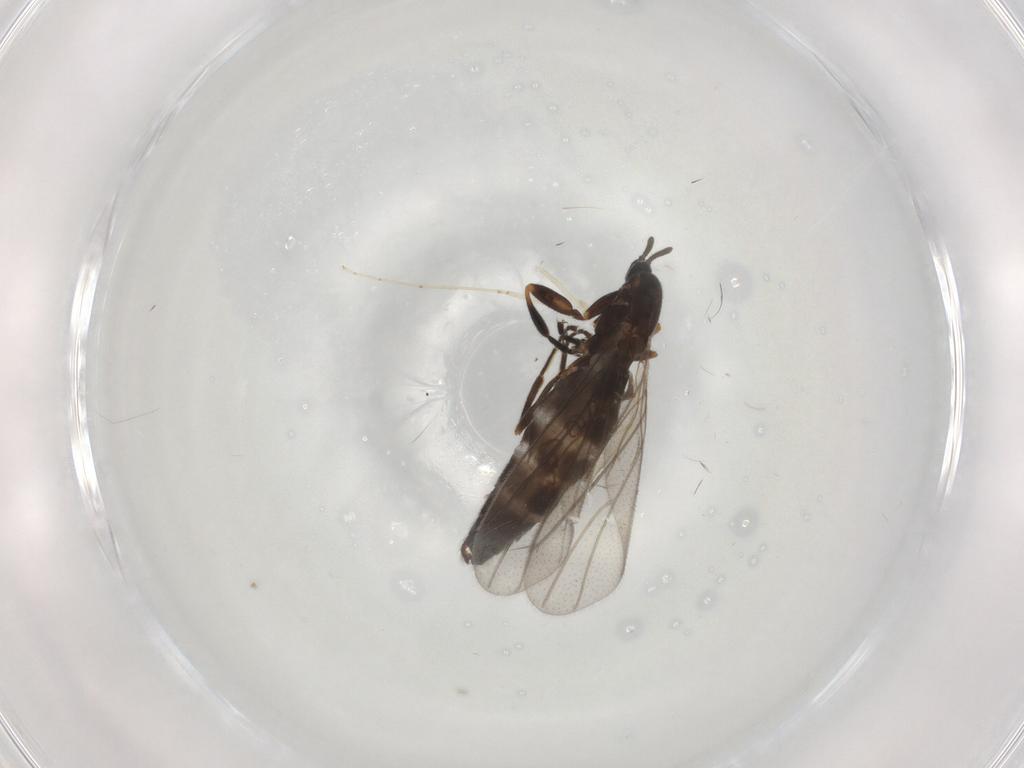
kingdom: Animalia
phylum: Arthropoda
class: Insecta
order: Diptera
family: Scatopsidae
